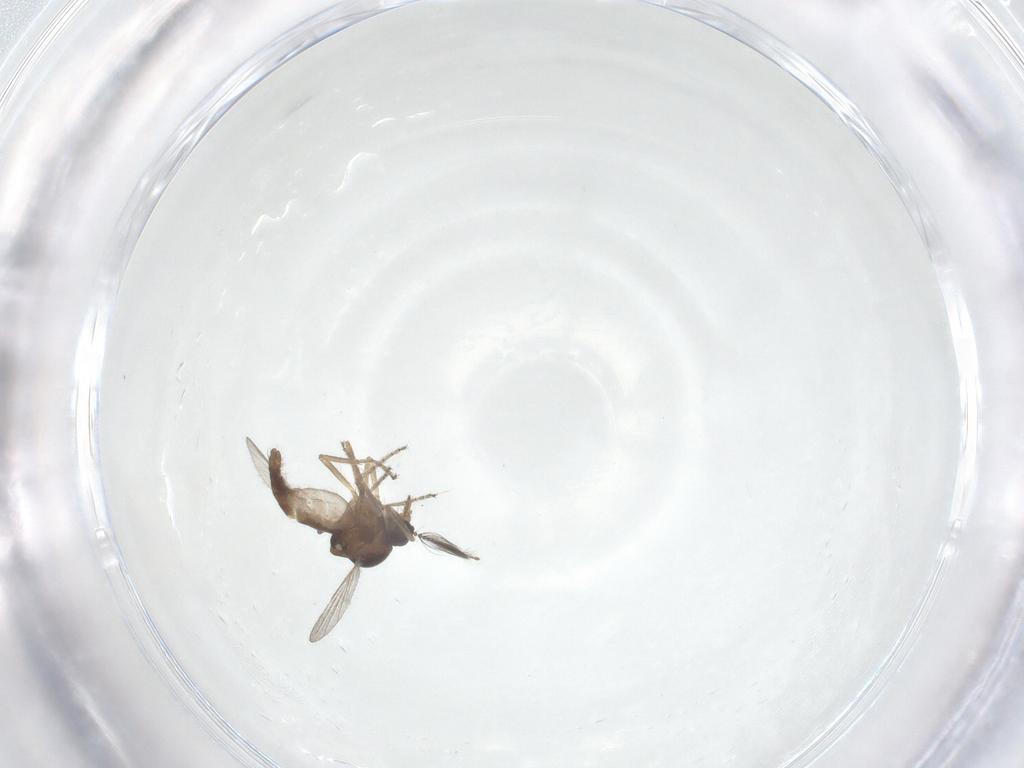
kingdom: Animalia
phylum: Arthropoda
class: Insecta
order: Diptera
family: Ceratopogonidae
